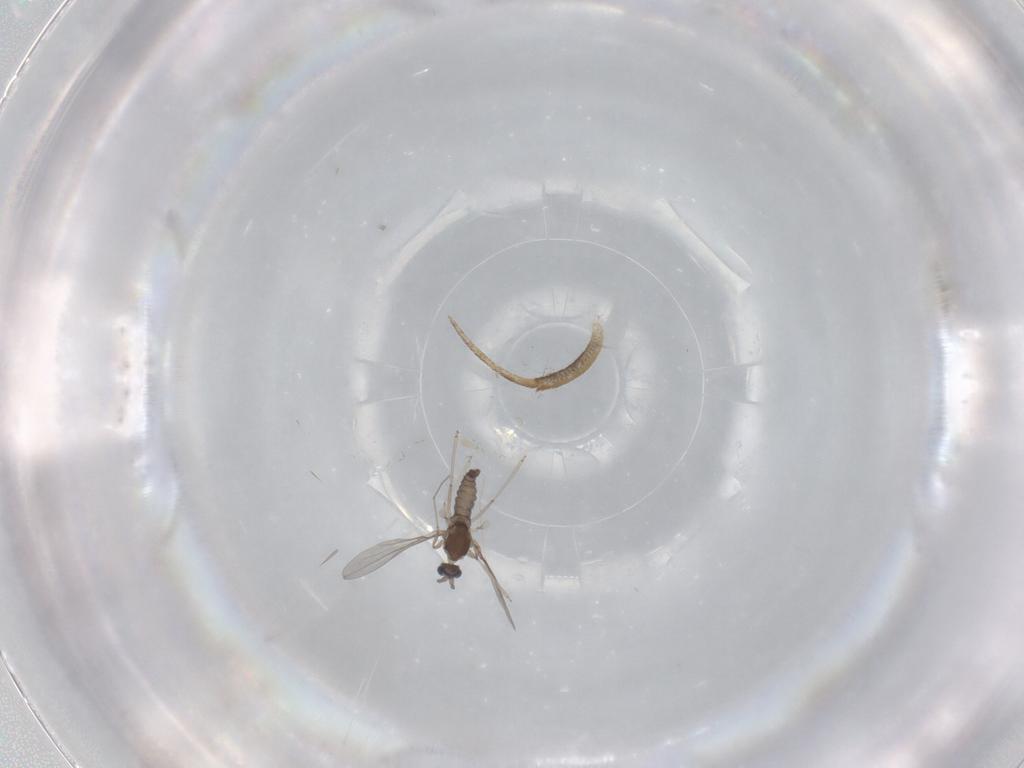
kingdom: Animalia
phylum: Arthropoda
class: Insecta
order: Diptera
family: Cecidomyiidae
